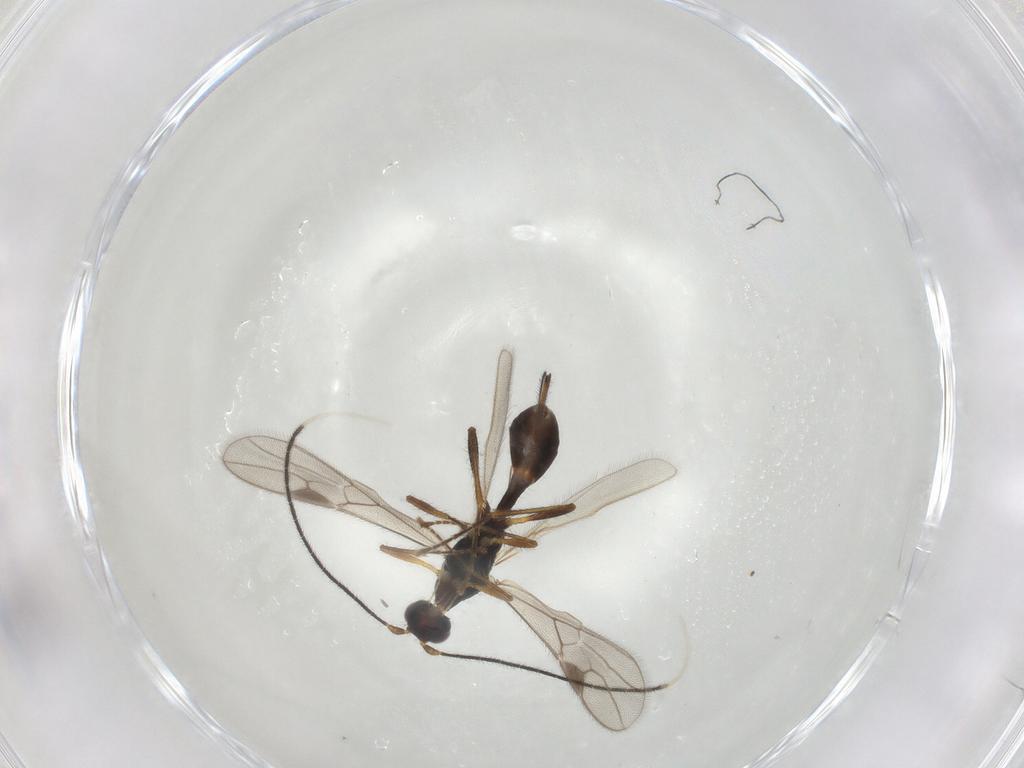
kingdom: Animalia
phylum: Arthropoda
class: Insecta
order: Hymenoptera
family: Braconidae
